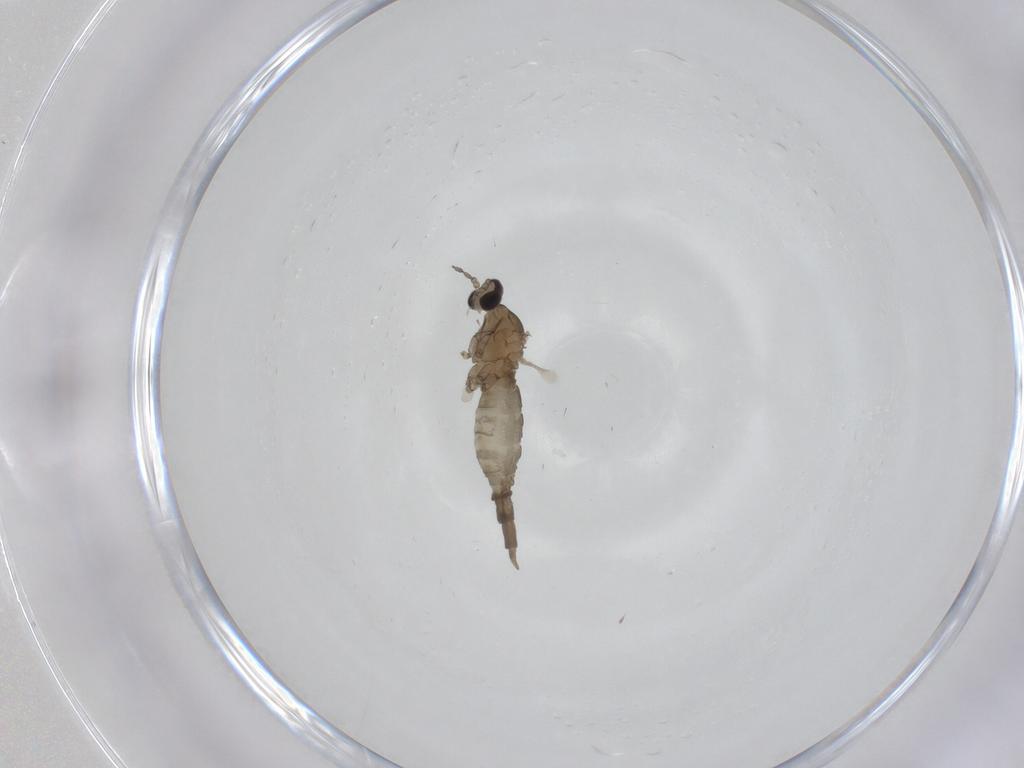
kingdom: Animalia
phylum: Arthropoda
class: Insecta
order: Diptera
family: Cecidomyiidae
